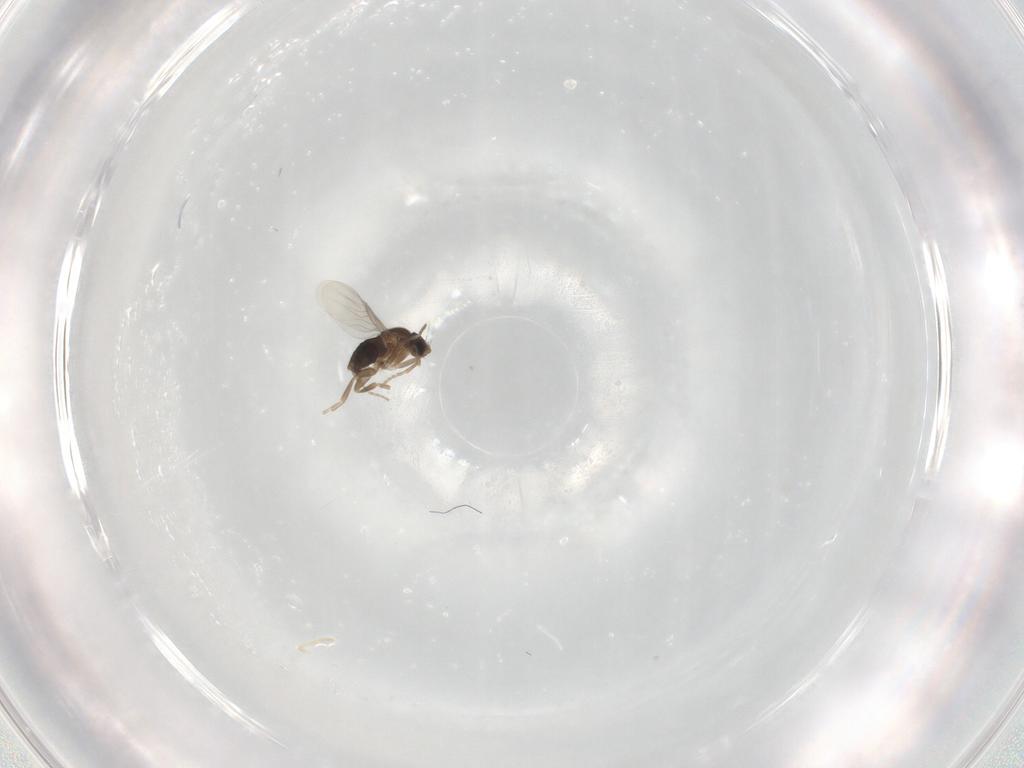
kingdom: Animalia
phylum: Arthropoda
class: Insecta
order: Diptera
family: Phoridae
